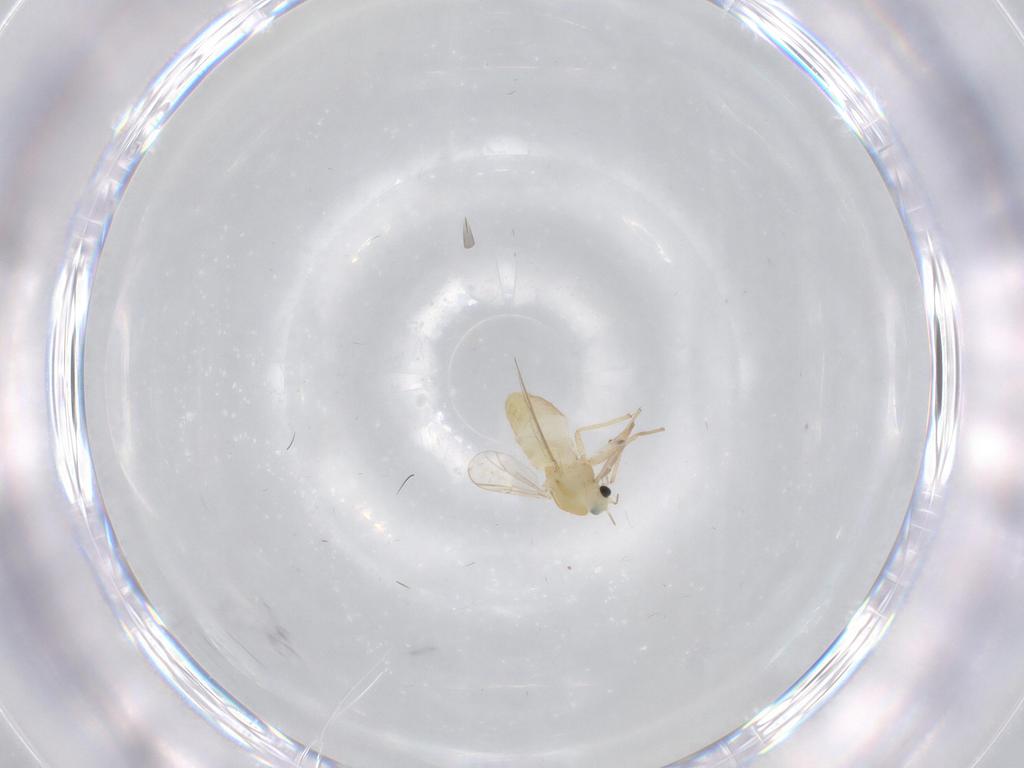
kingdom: Animalia
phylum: Arthropoda
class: Insecta
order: Diptera
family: Chironomidae
